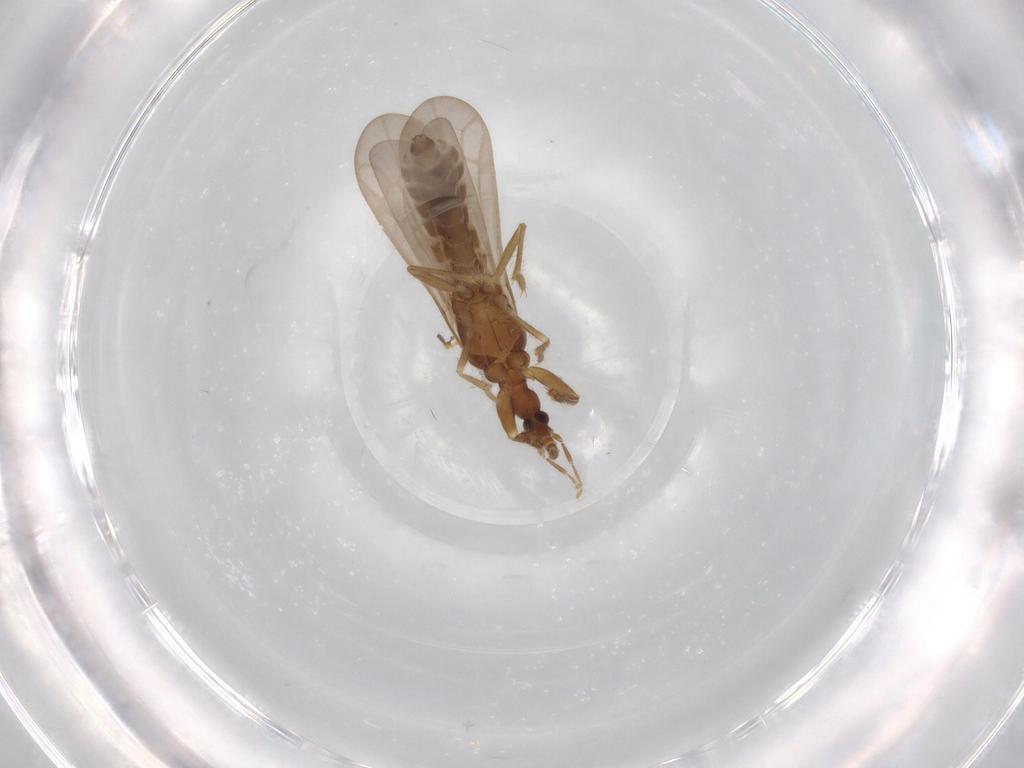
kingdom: Animalia
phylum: Arthropoda
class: Insecta
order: Hemiptera
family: Enicocephalidae
